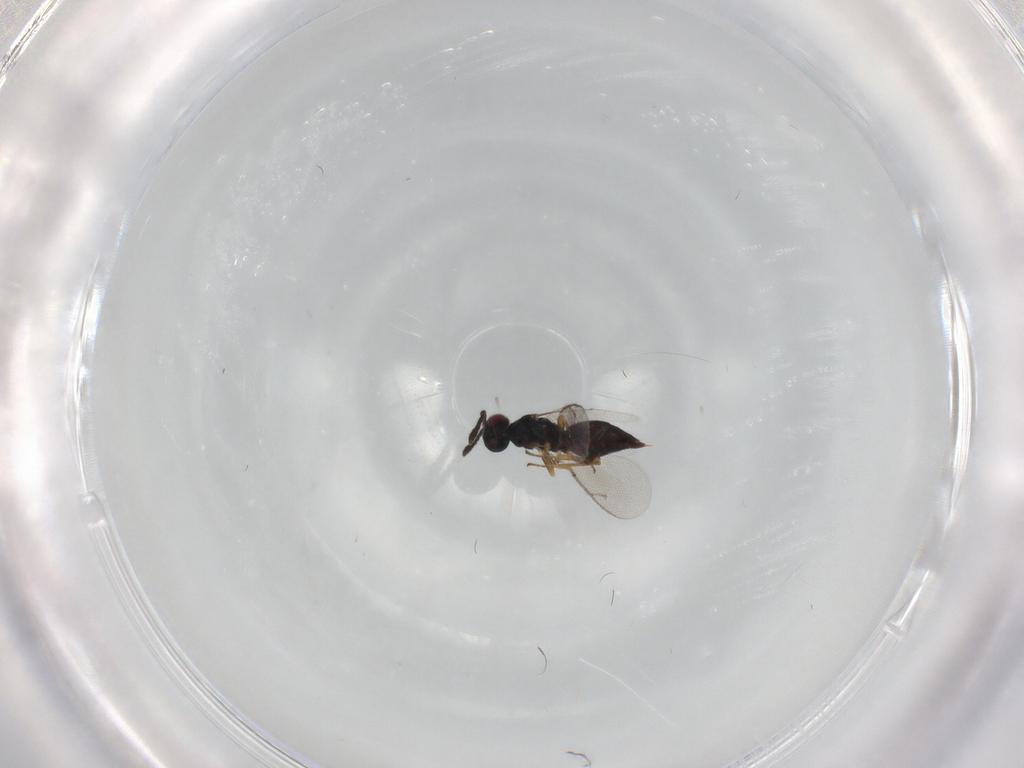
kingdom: Animalia
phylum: Arthropoda
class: Insecta
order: Hymenoptera
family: Pteromalidae
